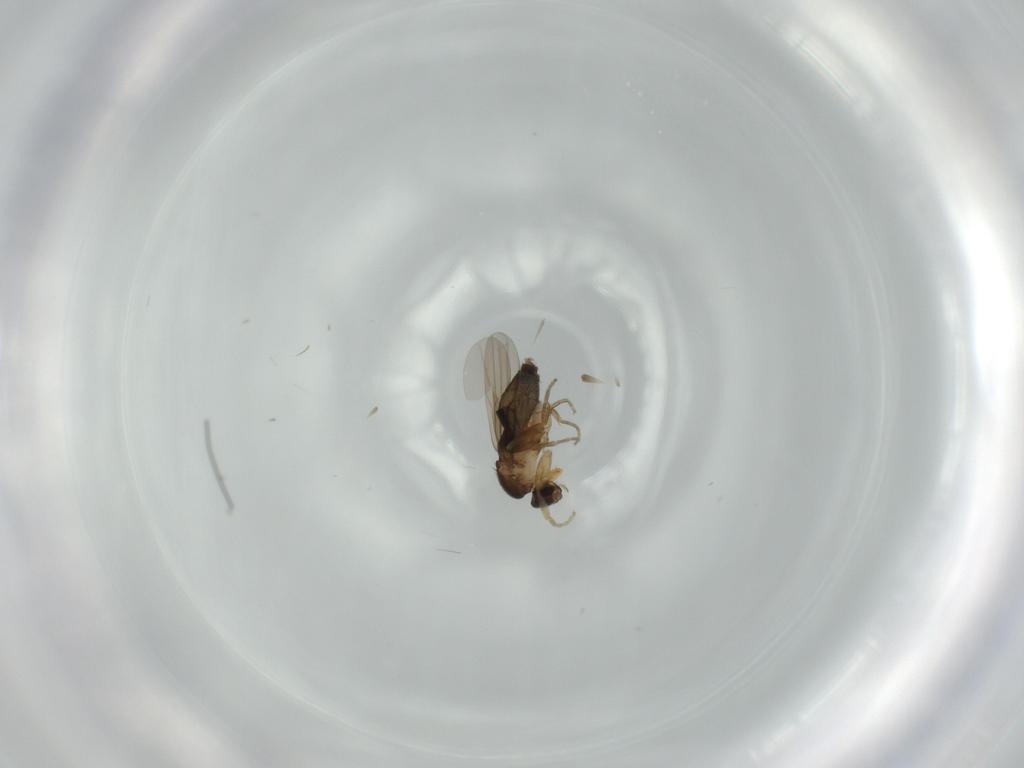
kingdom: Animalia
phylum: Arthropoda
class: Insecta
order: Diptera
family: Phoridae
